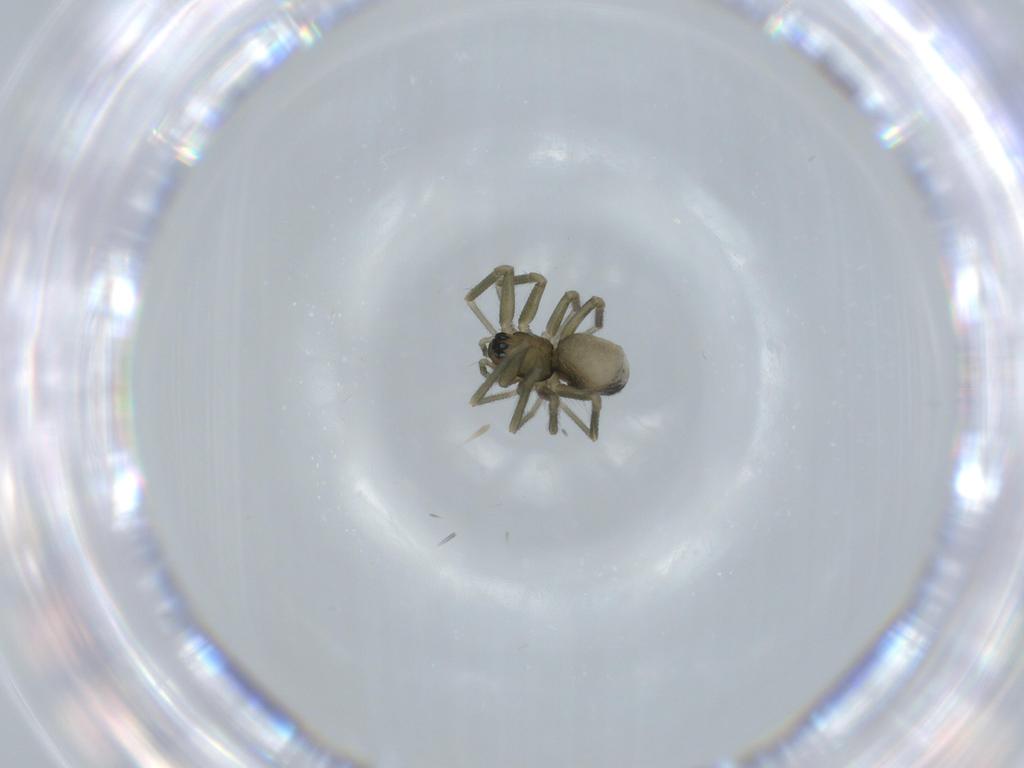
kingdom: Animalia
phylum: Arthropoda
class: Arachnida
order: Araneae
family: Linyphiidae
